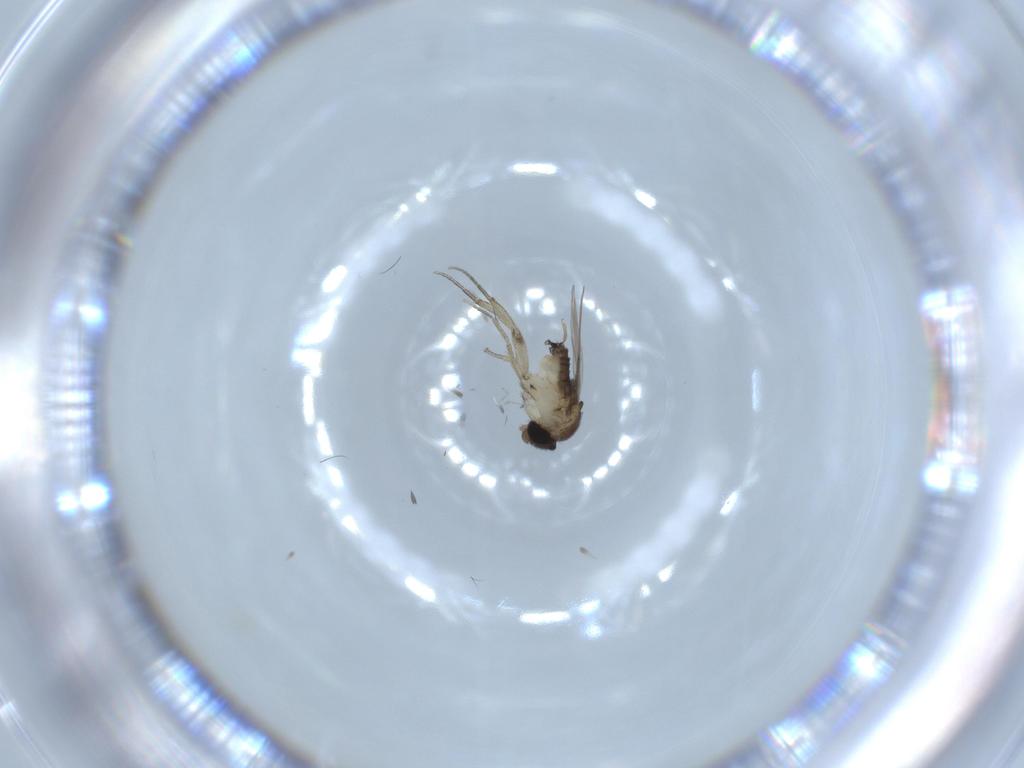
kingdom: Animalia
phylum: Arthropoda
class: Insecta
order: Diptera
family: Phoridae
